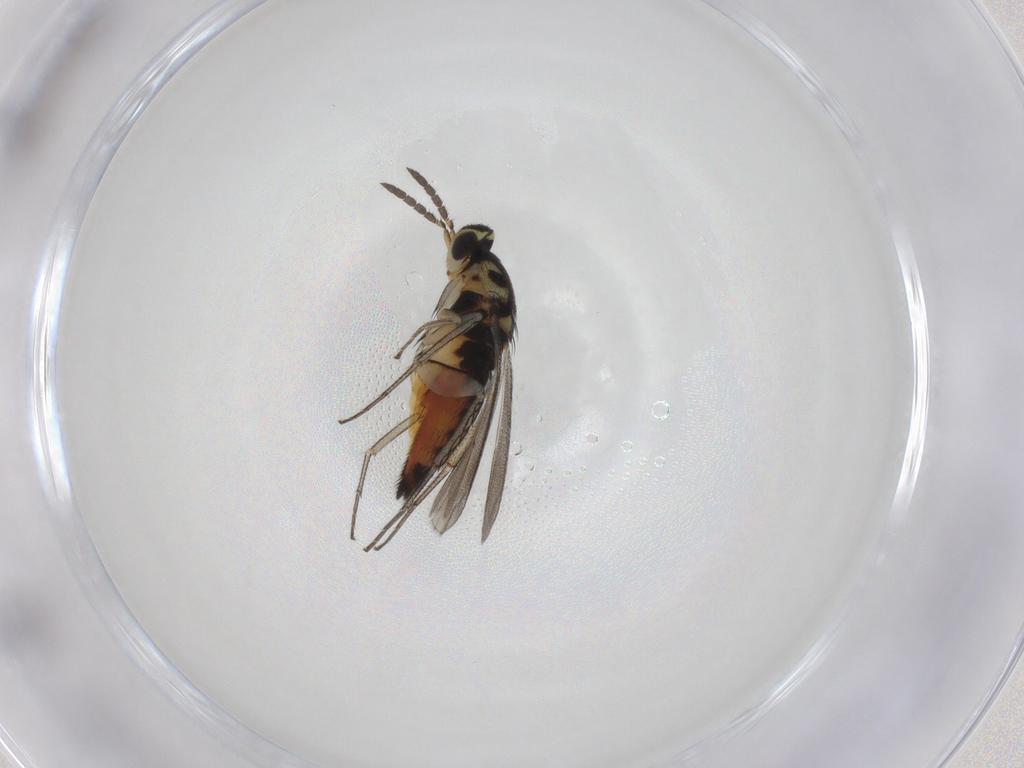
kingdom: Animalia
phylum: Arthropoda
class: Insecta
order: Hymenoptera
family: Eulophidae
